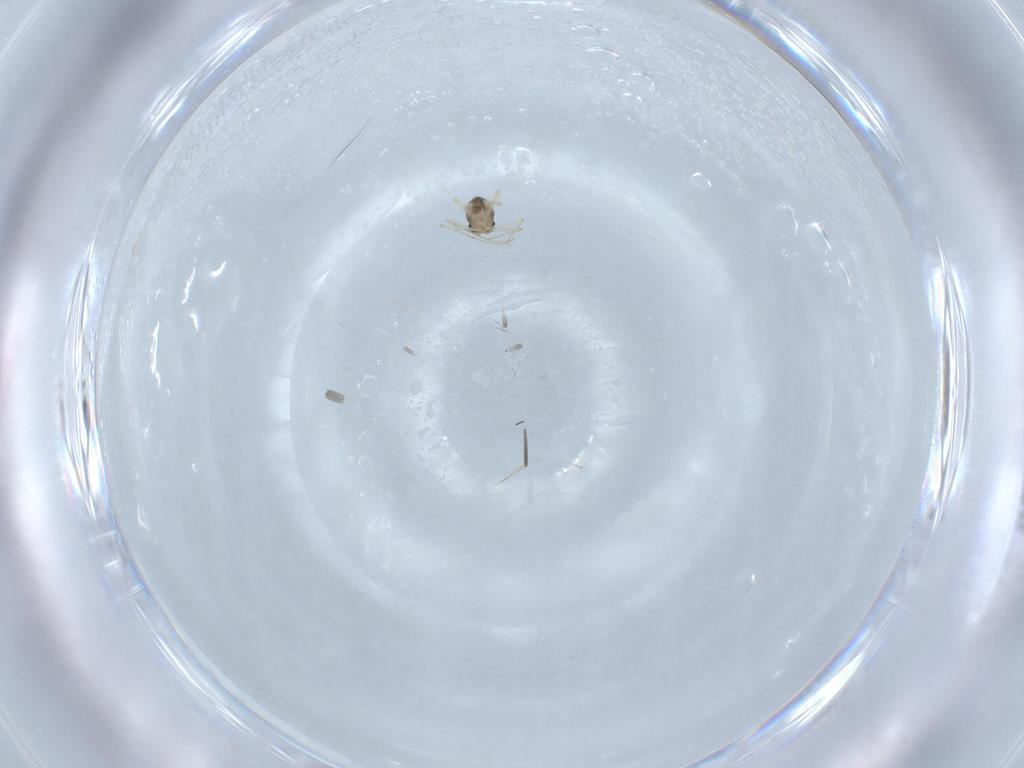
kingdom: Animalia
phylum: Arthropoda
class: Insecta
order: Diptera
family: Chironomidae
